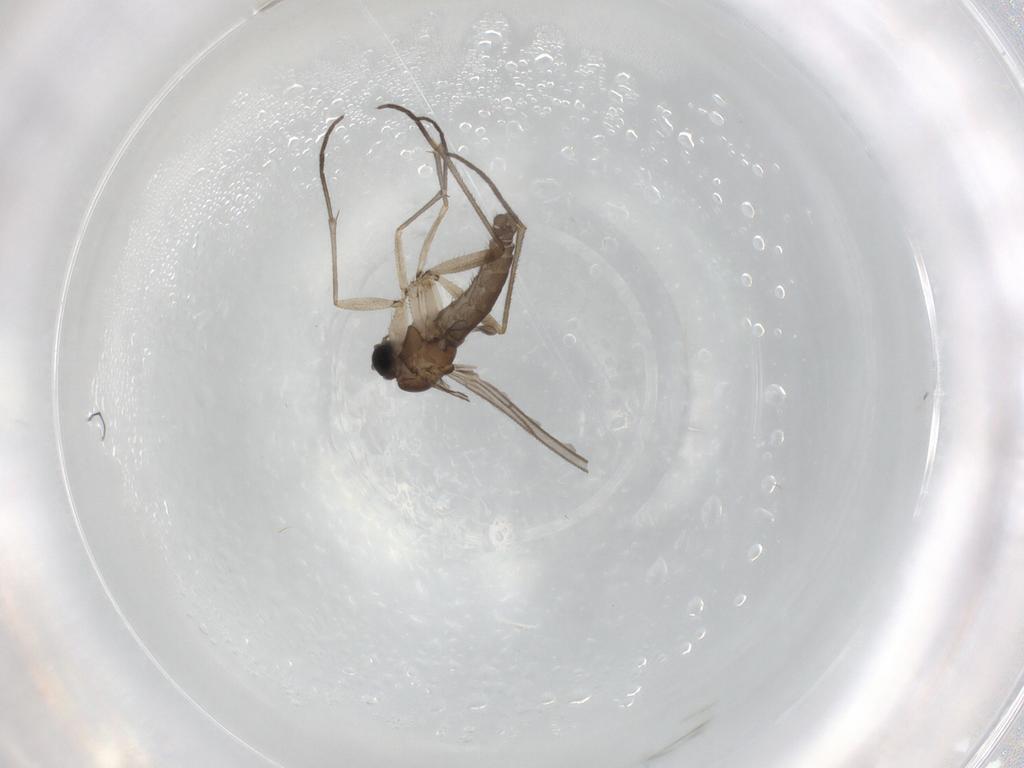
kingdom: Animalia
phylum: Arthropoda
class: Insecta
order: Diptera
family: Sciaridae
